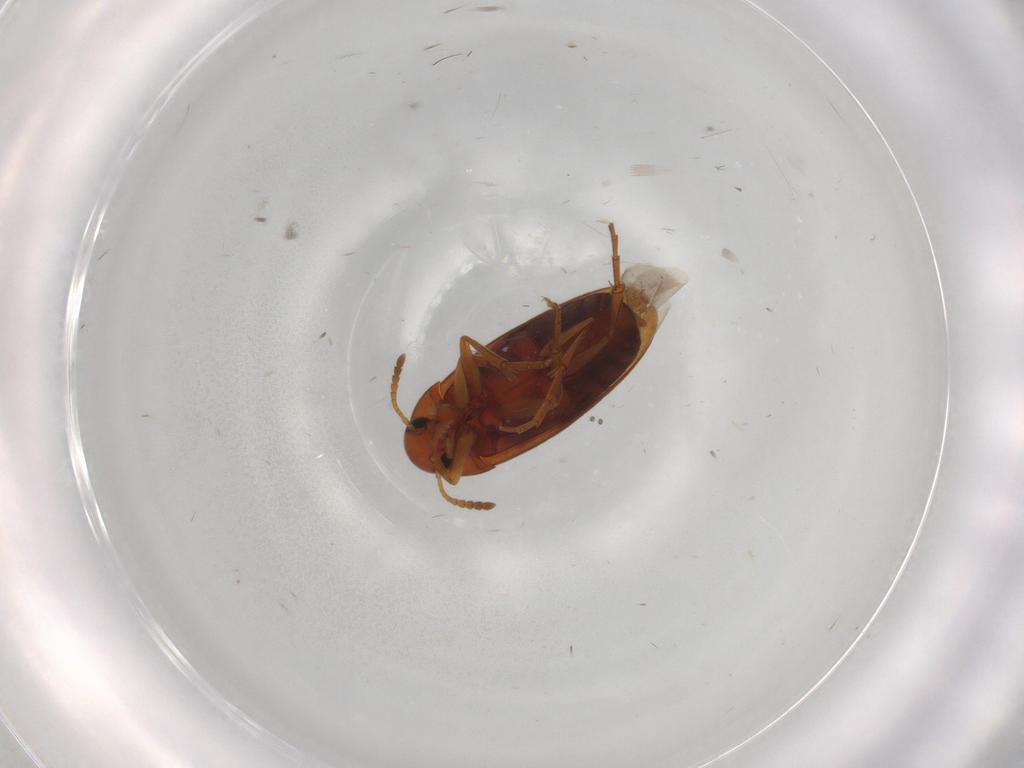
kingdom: Animalia
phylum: Arthropoda
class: Insecta
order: Coleoptera
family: Scraptiidae
